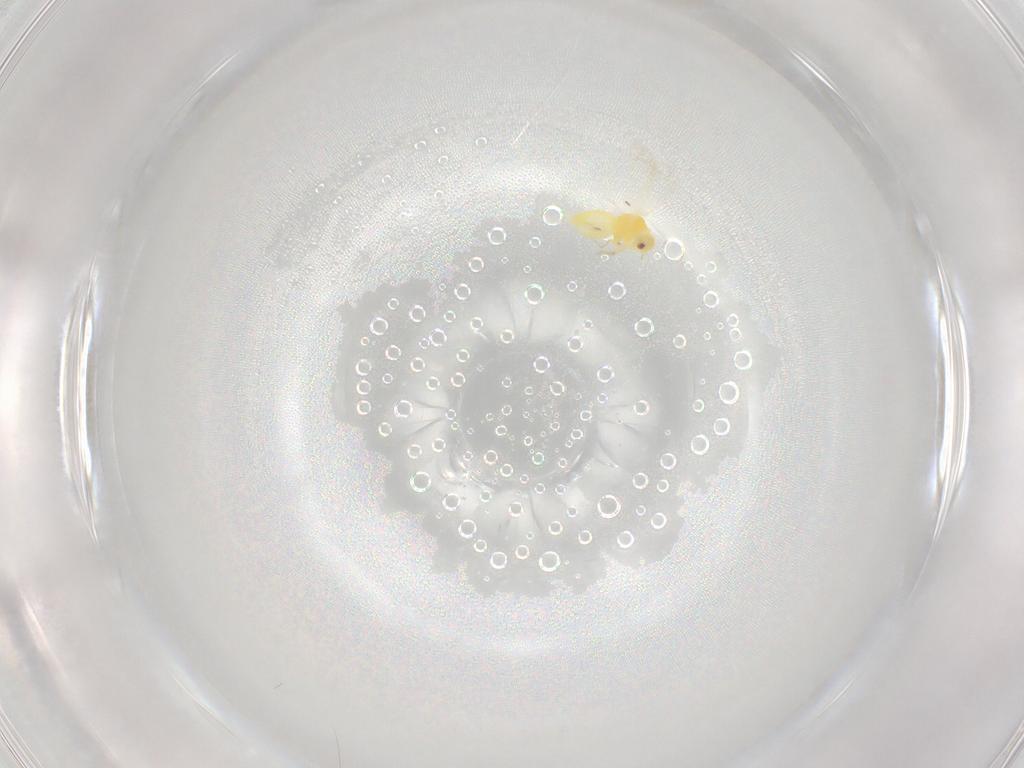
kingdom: Animalia
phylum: Arthropoda
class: Insecta
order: Hemiptera
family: Cicadellidae
